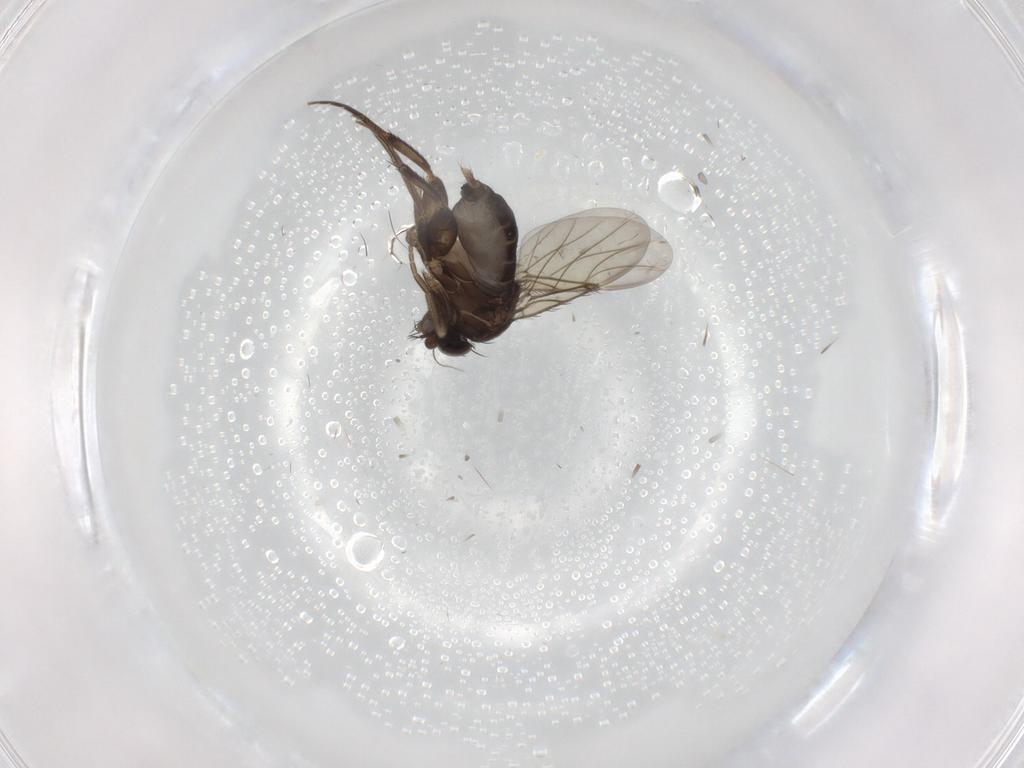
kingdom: Animalia
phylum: Arthropoda
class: Insecta
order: Diptera
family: Phoridae
